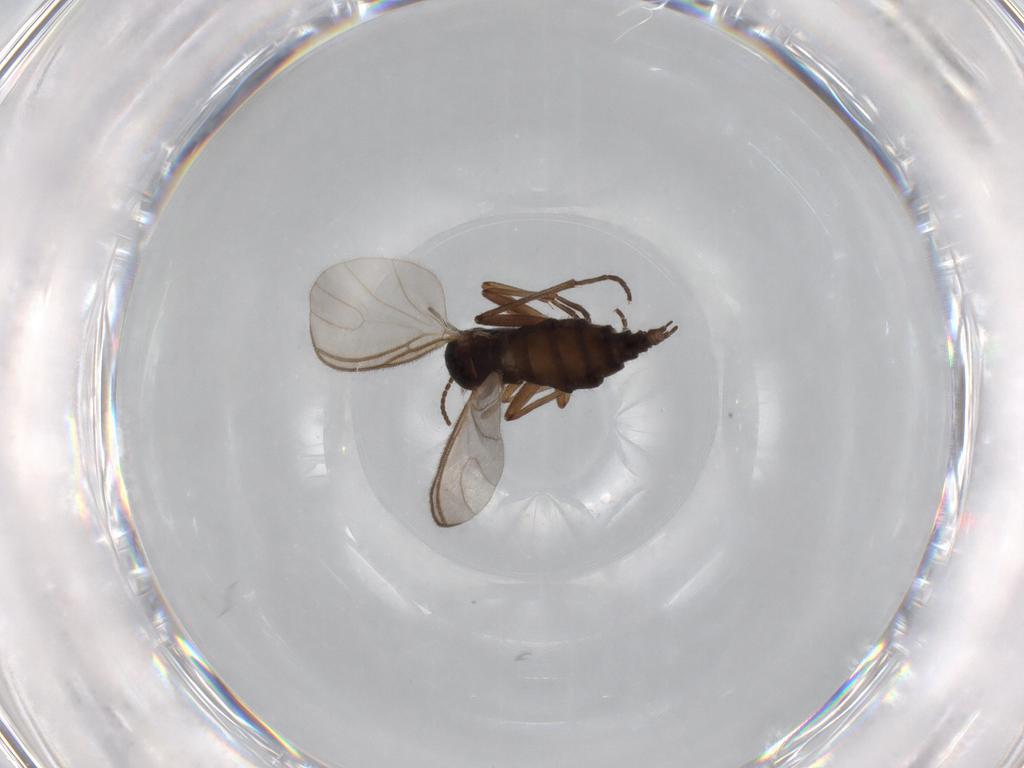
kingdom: Animalia
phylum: Arthropoda
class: Insecta
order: Diptera
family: Sciaridae
